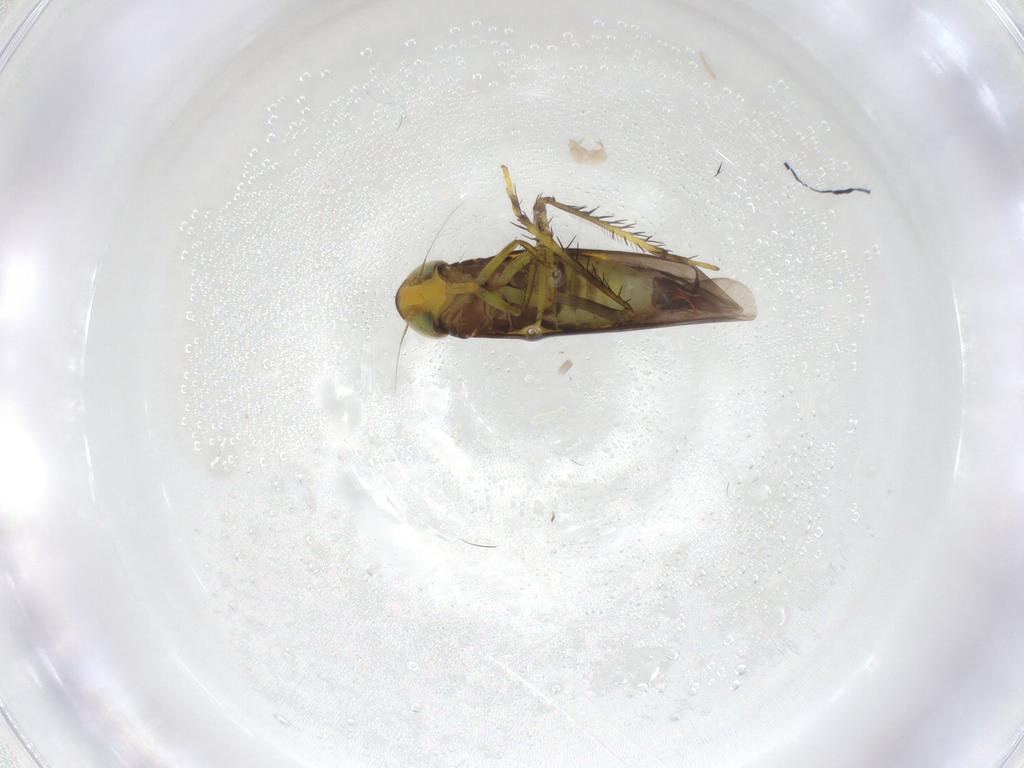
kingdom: Animalia
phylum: Arthropoda
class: Insecta
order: Hemiptera
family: Cicadellidae
